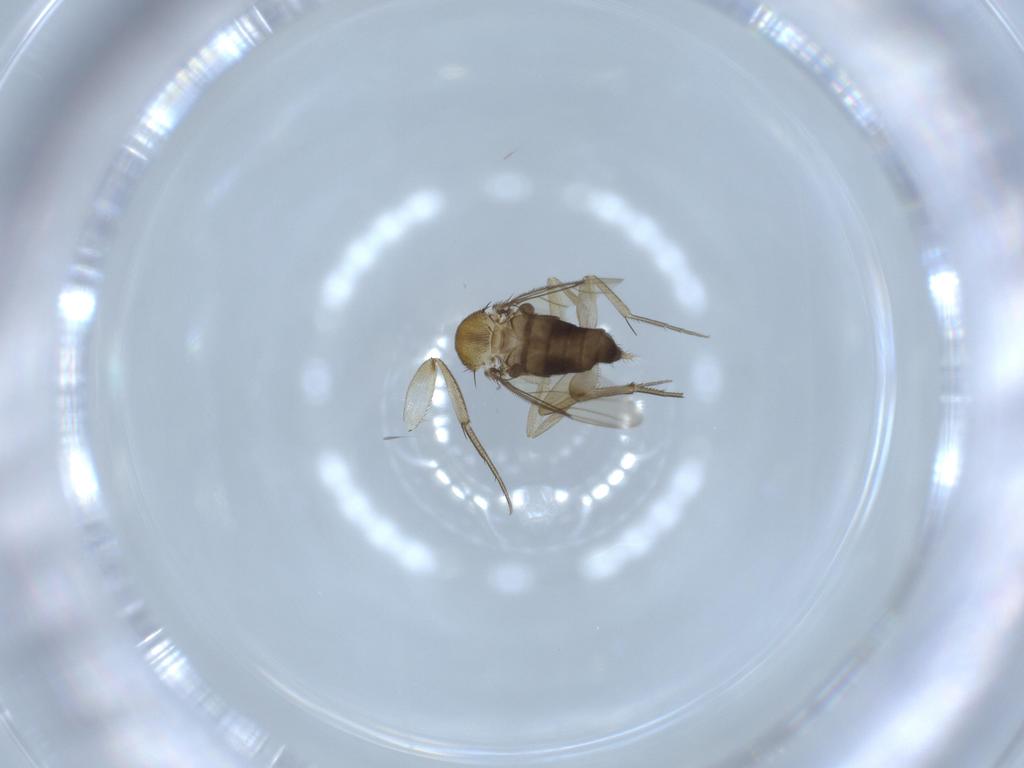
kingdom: Animalia
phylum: Arthropoda
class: Insecta
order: Diptera
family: Phoridae
